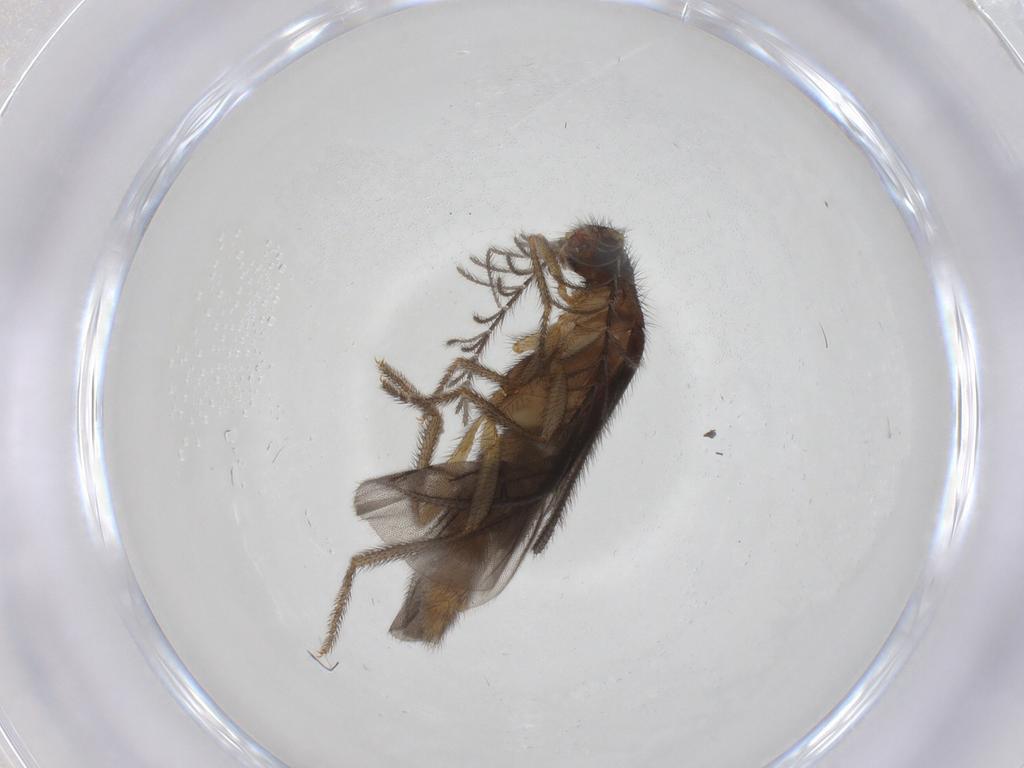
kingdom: Animalia
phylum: Arthropoda
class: Insecta
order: Coleoptera
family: Phengodidae
